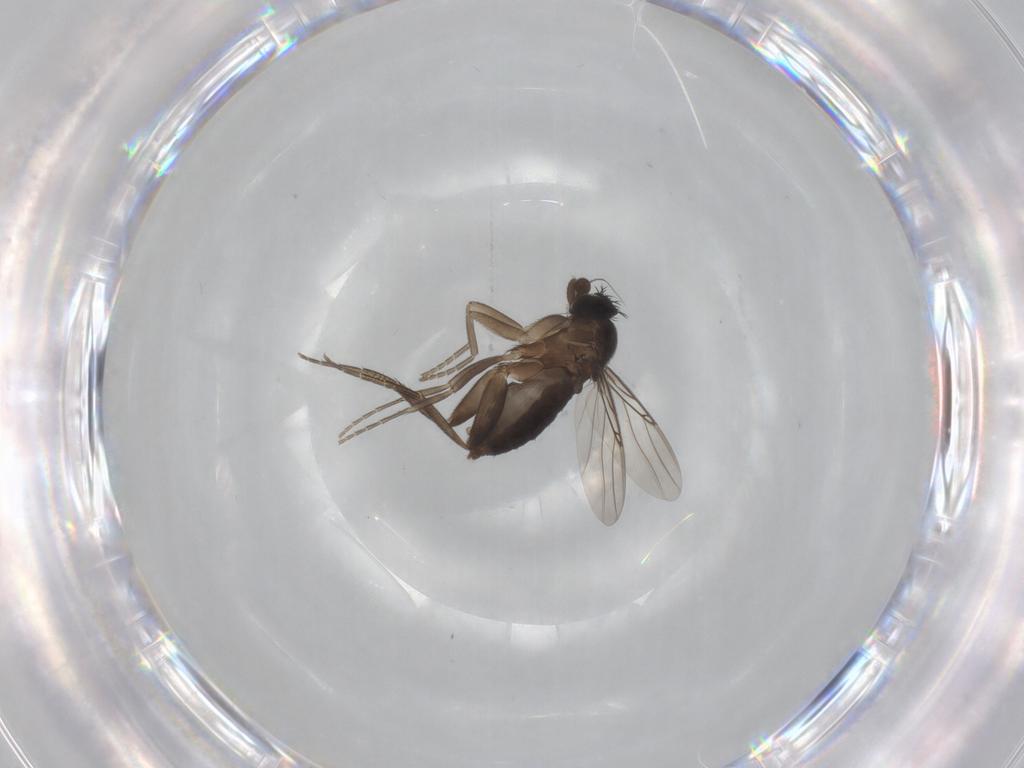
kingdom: Animalia
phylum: Arthropoda
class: Insecta
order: Diptera
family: Phoridae
